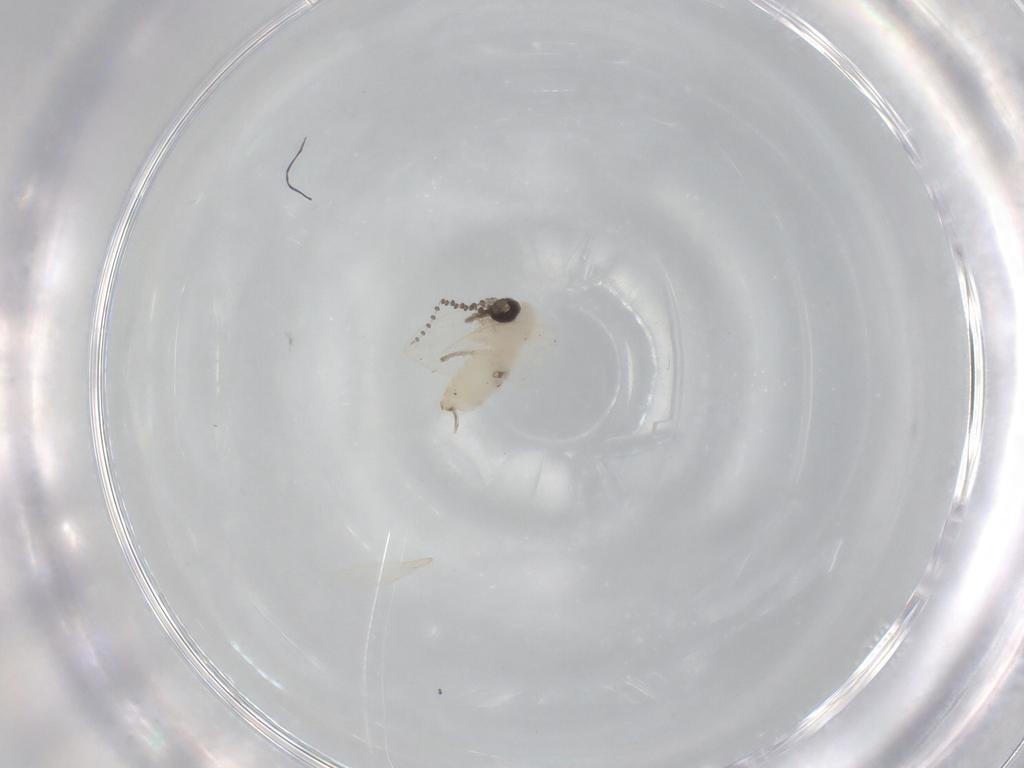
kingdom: Animalia
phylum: Arthropoda
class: Insecta
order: Diptera
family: Psychodidae
